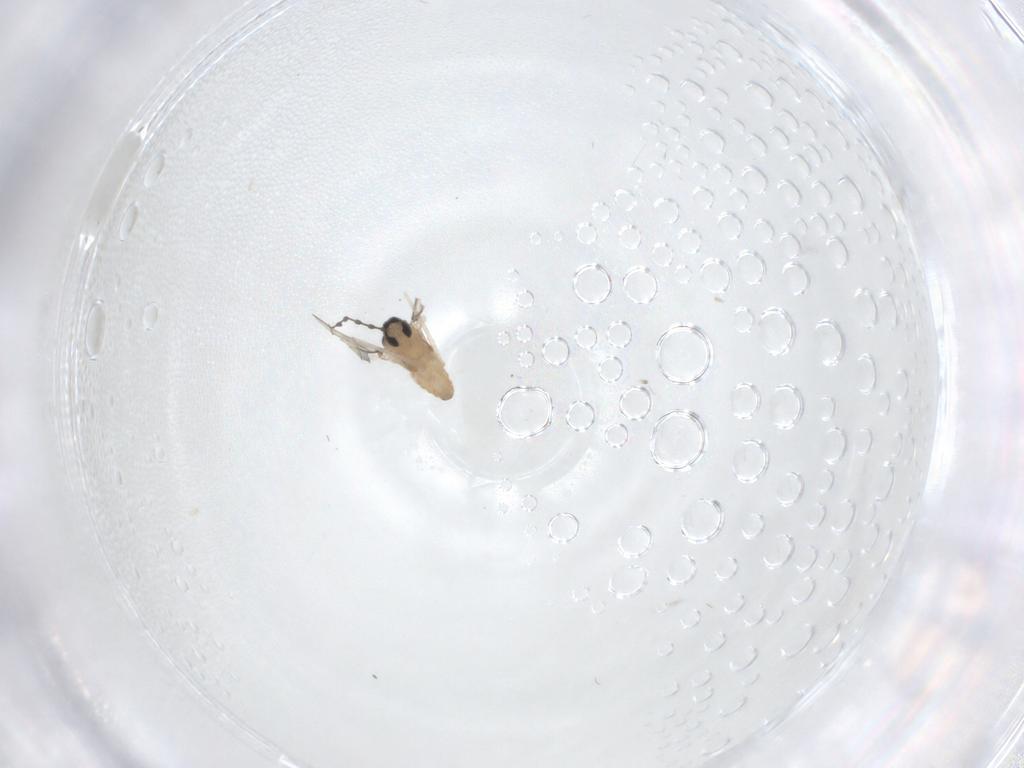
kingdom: Animalia
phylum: Arthropoda
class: Insecta
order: Diptera
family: Cecidomyiidae
